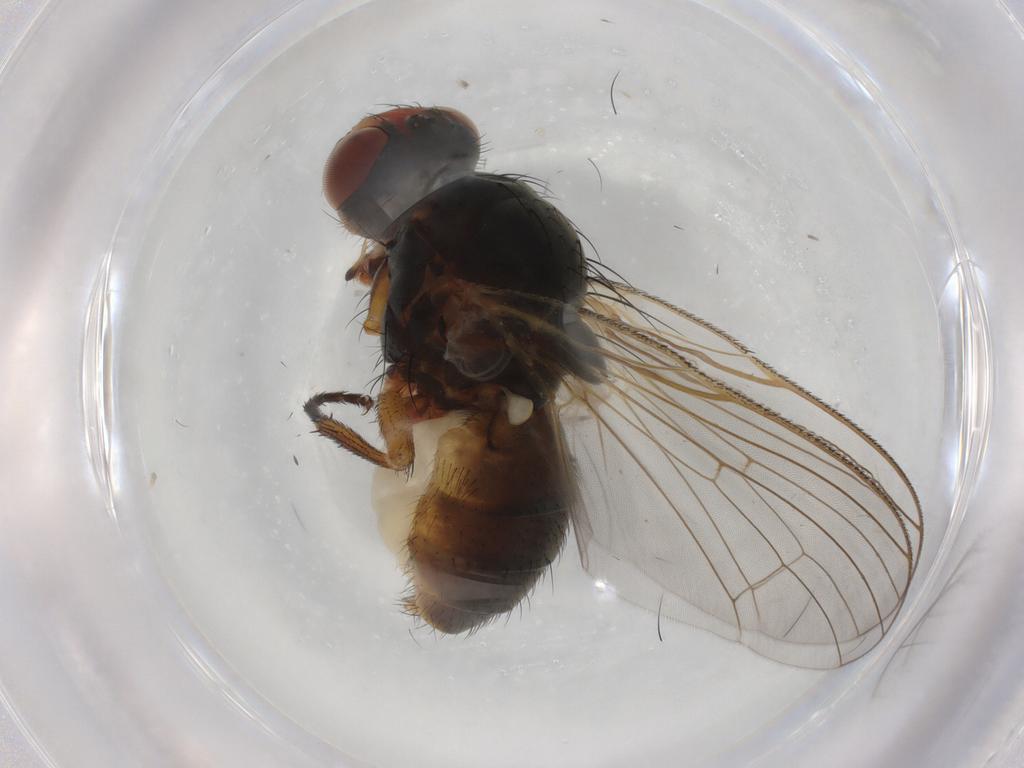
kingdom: Animalia
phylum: Arthropoda
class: Insecta
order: Diptera
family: Anthomyiidae
